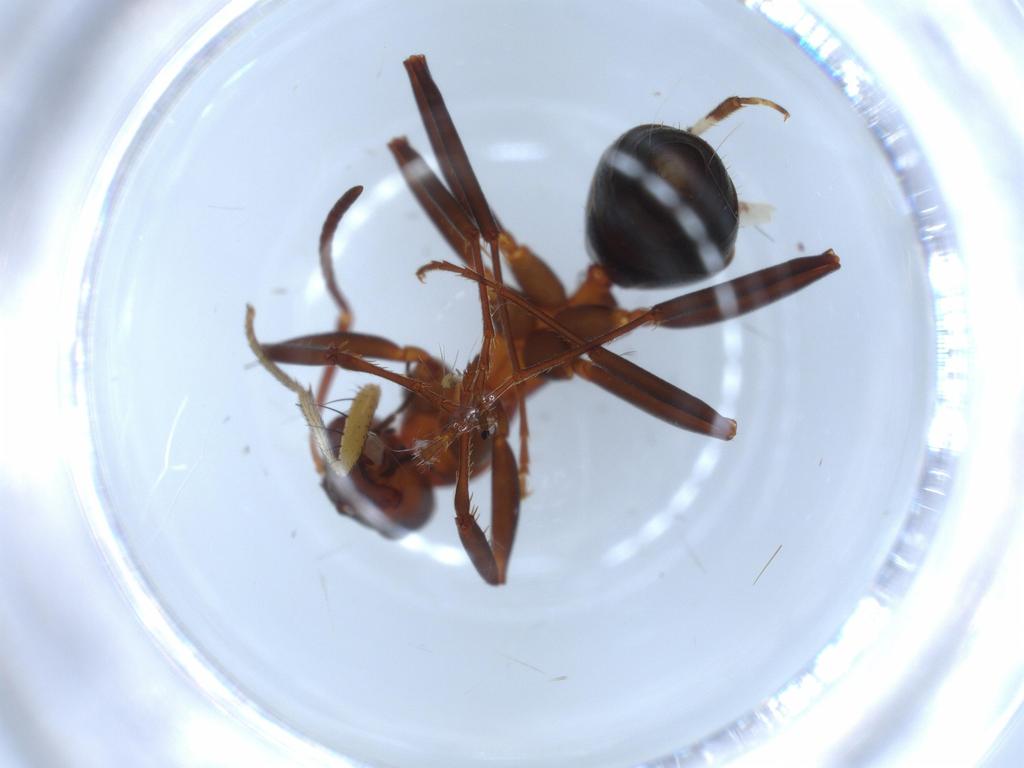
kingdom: Animalia
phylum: Arthropoda
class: Insecta
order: Hymenoptera
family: Formicidae
